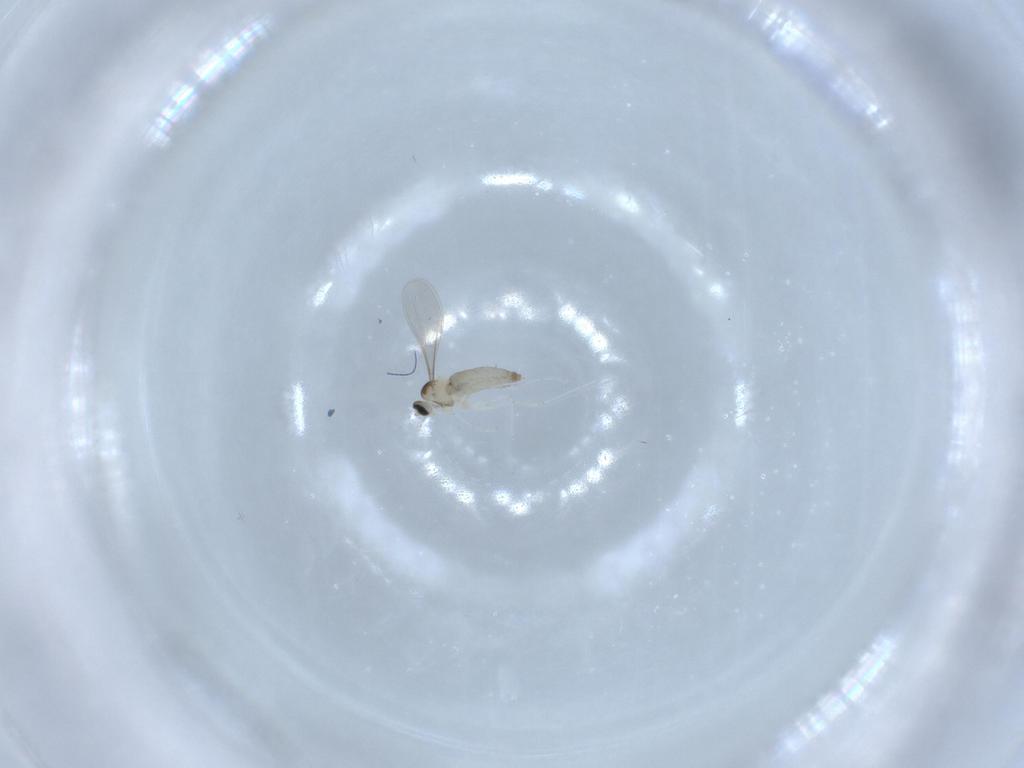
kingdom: Animalia
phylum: Arthropoda
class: Insecta
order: Diptera
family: Sciaridae
